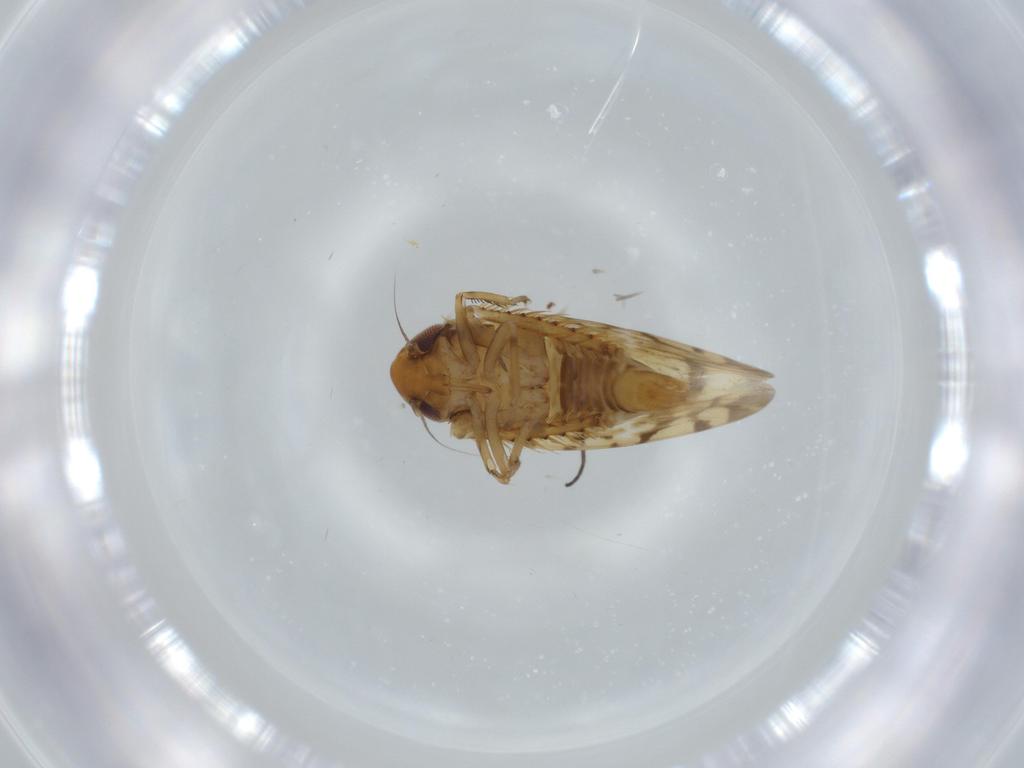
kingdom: Animalia
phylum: Arthropoda
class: Insecta
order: Hemiptera
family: Cicadellidae
